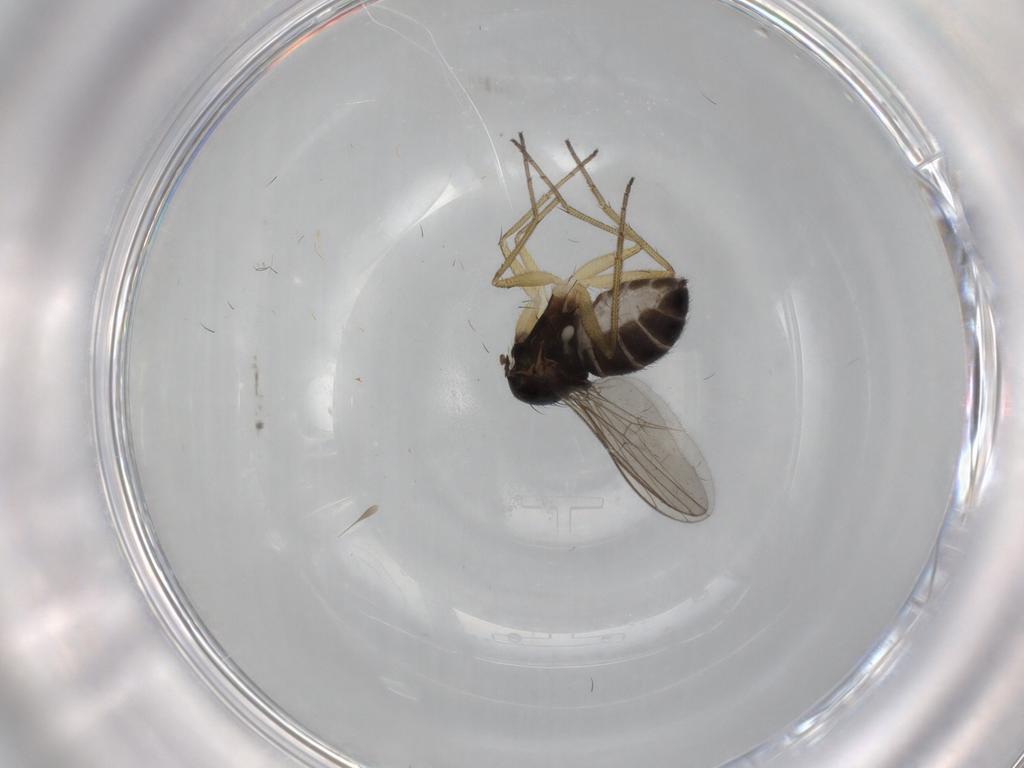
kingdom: Animalia
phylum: Arthropoda
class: Insecta
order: Diptera
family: Dolichopodidae
